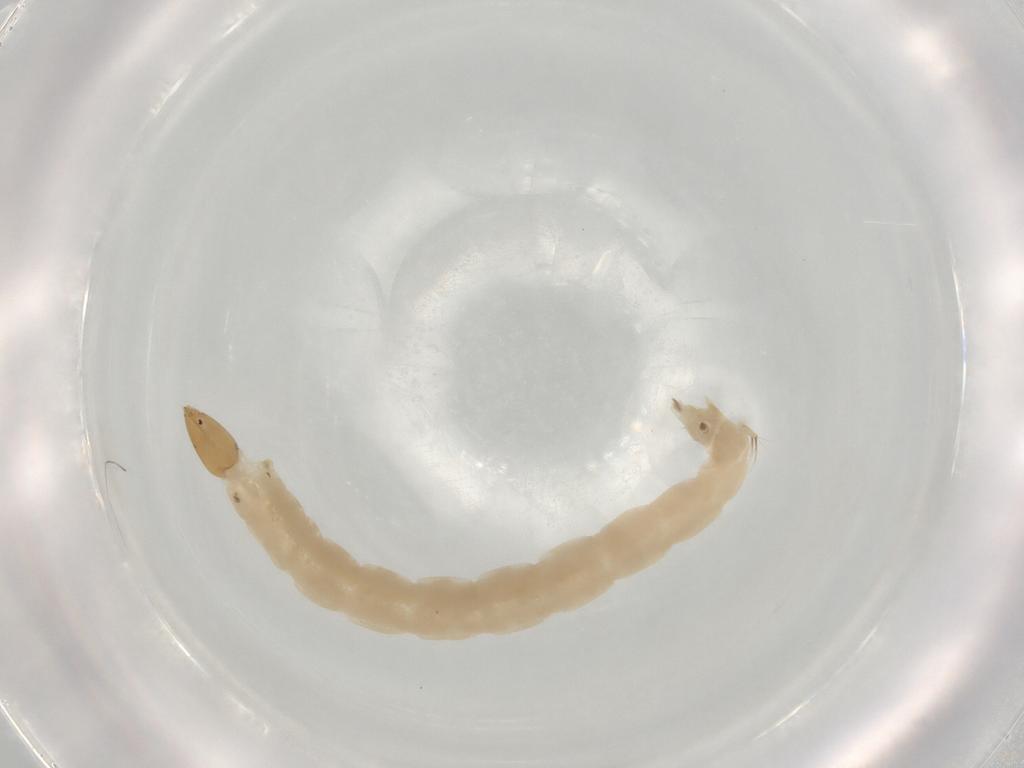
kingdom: Animalia
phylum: Arthropoda
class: Insecta
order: Diptera
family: Chironomidae
